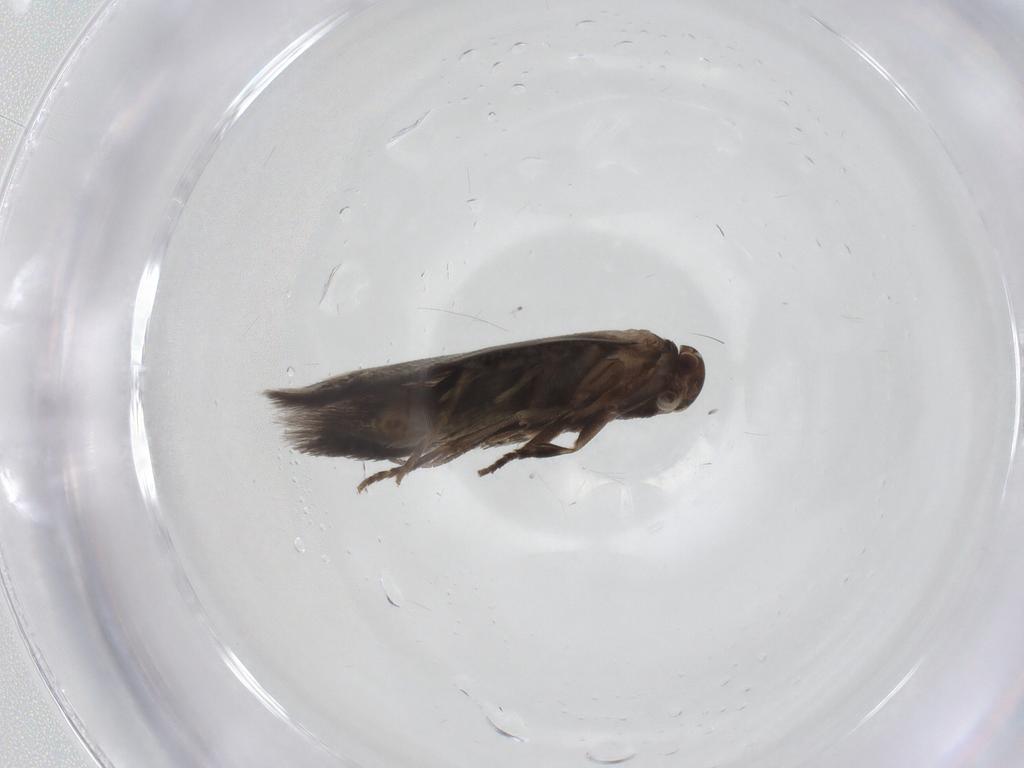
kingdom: Animalia
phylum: Arthropoda
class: Insecta
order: Lepidoptera
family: Elachistidae
